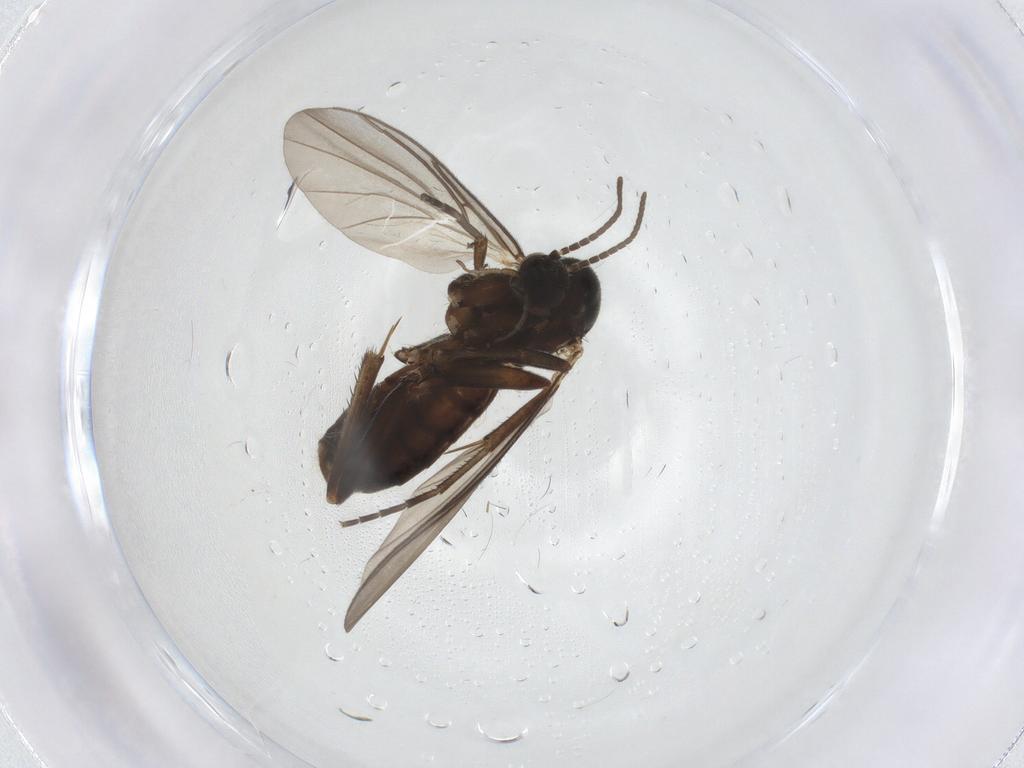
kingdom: Animalia
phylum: Arthropoda
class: Insecta
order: Diptera
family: Mycetophilidae
